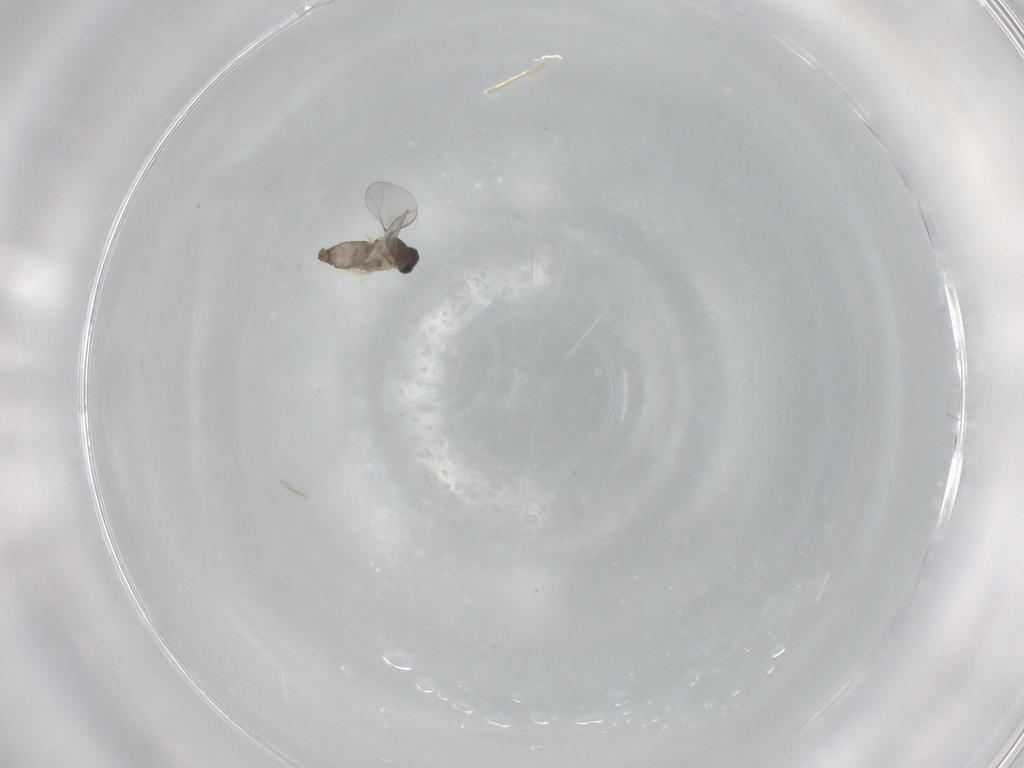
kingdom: Animalia
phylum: Arthropoda
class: Insecta
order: Diptera
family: Cecidomyiidae
